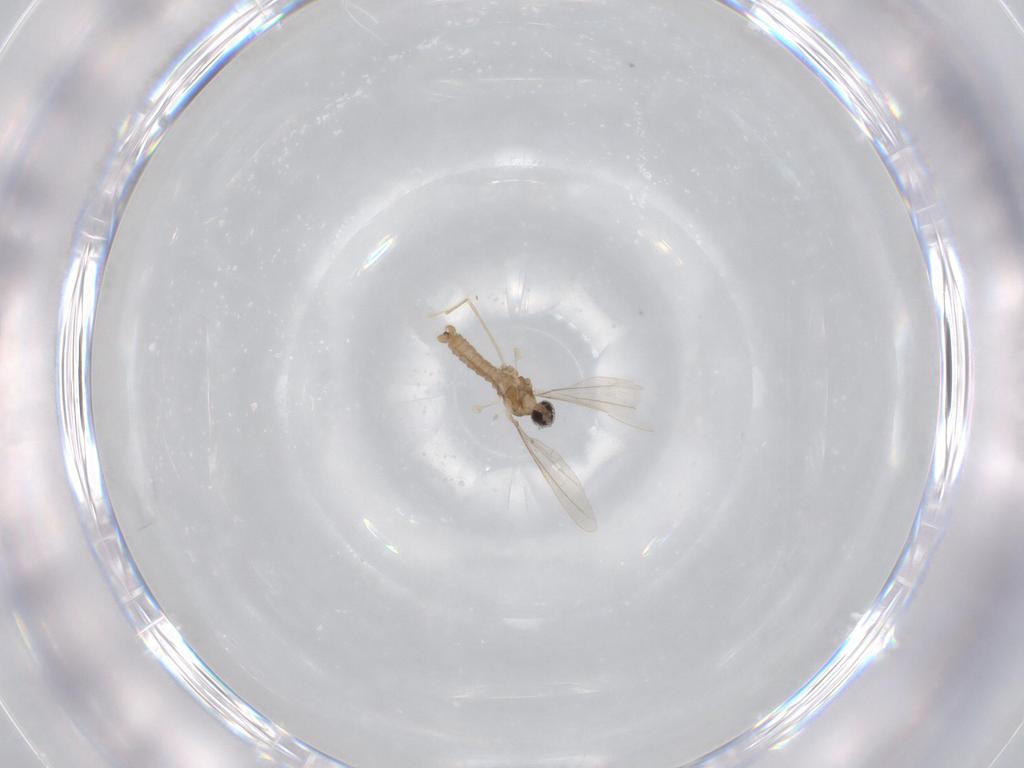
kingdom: Animalia
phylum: Arthropoda
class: Insecta
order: Diptera
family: Cecidomyiidae
